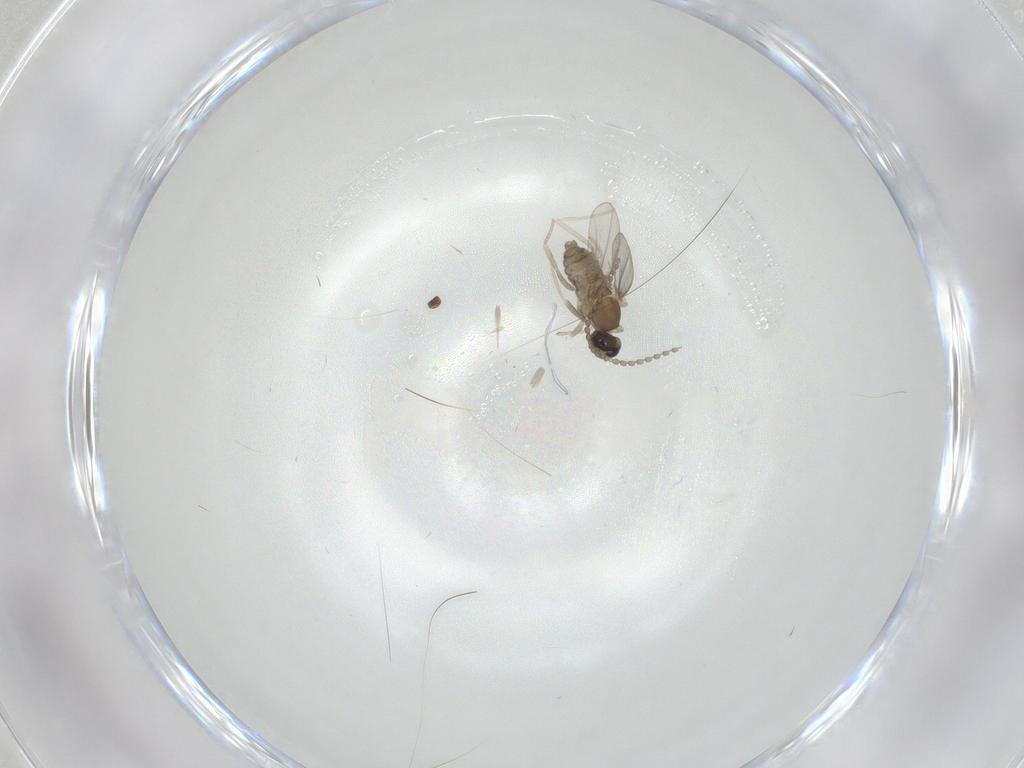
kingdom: Animalia
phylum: Arthropoda
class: Insecta
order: Diptera
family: Cecidomyiidae
